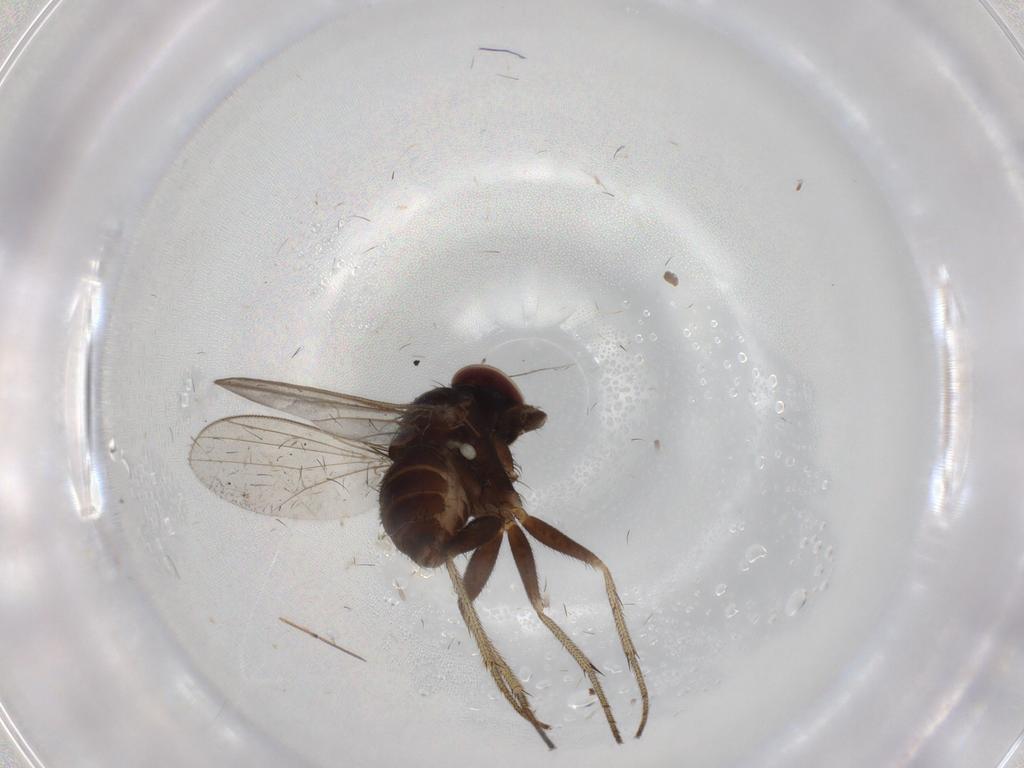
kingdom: Animalia
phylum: Arthropoda
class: Insecta
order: Diptera
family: Dolichopodidae
